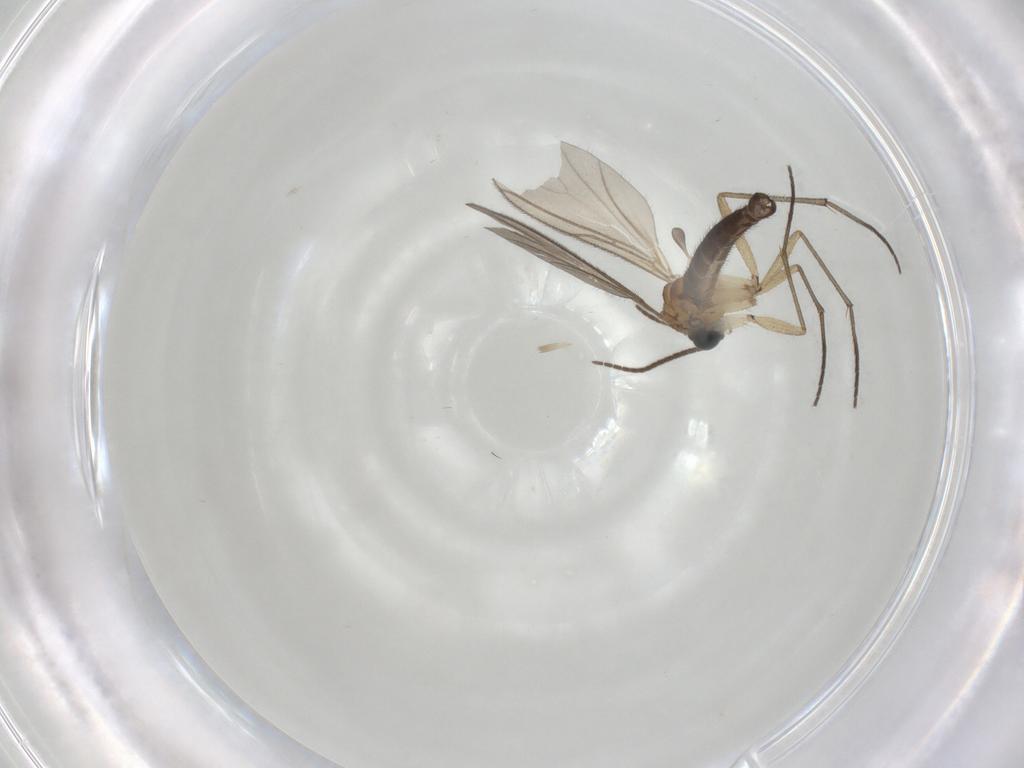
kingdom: Animalia
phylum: Arthropoda
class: Insecta
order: Diptera
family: Sciaridae
